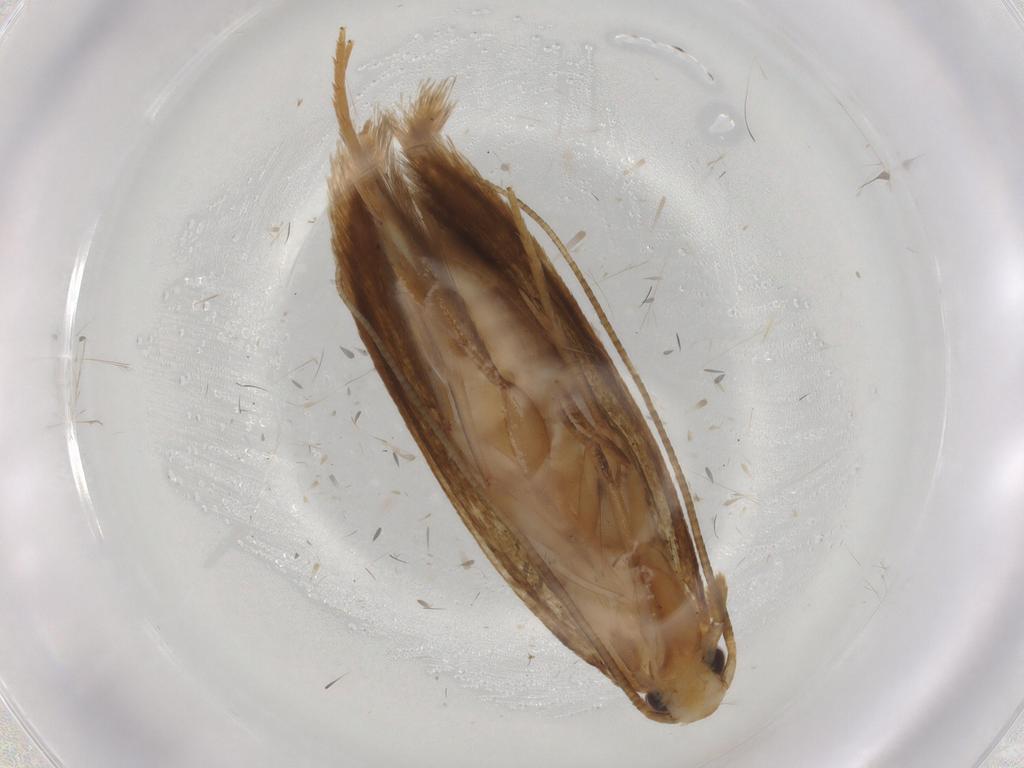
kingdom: Animalia
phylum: Arthropoda
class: Insecta
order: Lepidoptera
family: Tineidae
